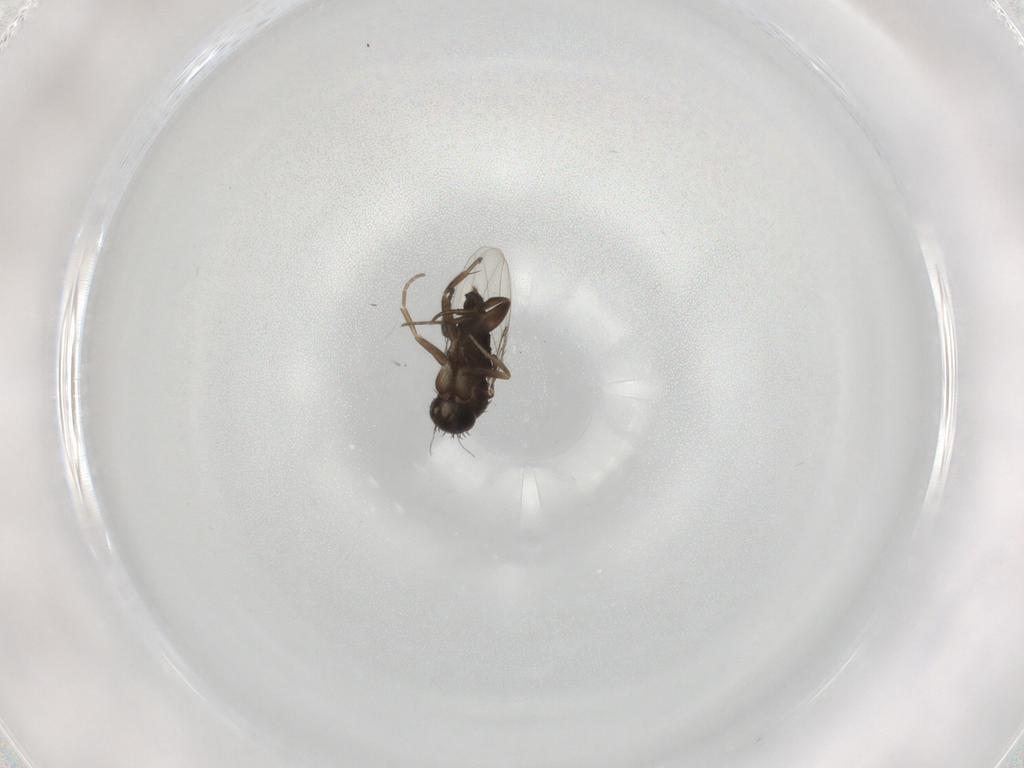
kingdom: Animalia
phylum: Arthropoda
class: Insecta
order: Diptera
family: Phoridae
